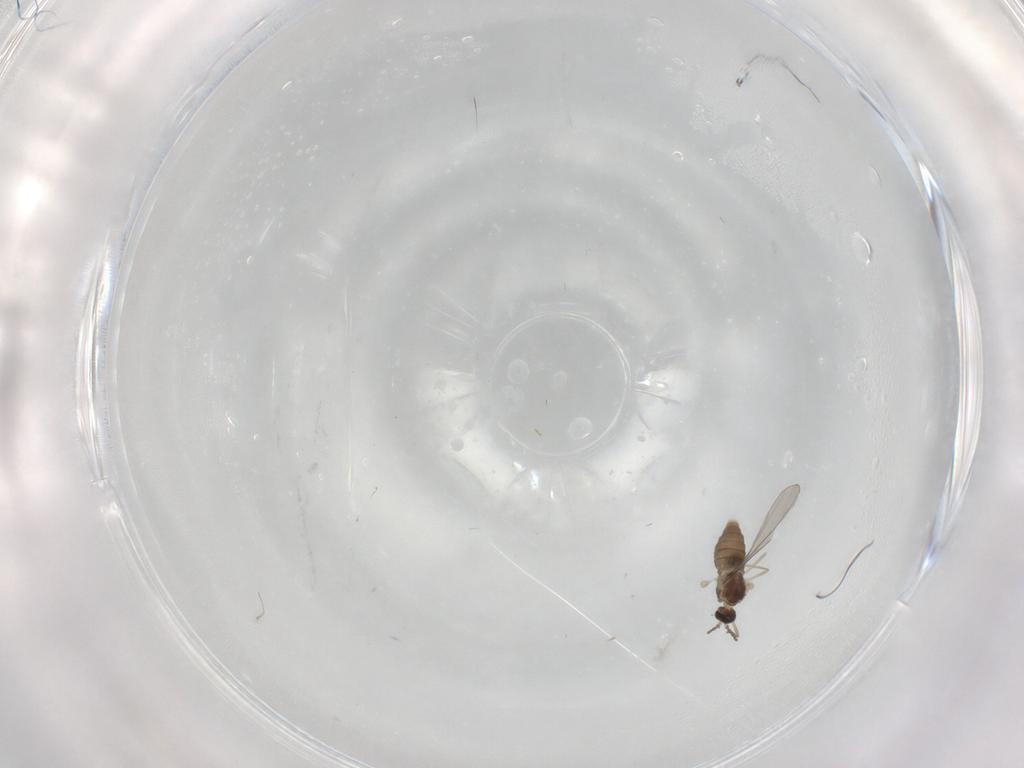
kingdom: Animalia
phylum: Arthropoda
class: Insecta
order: Diptera
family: Cecidomyiidae
